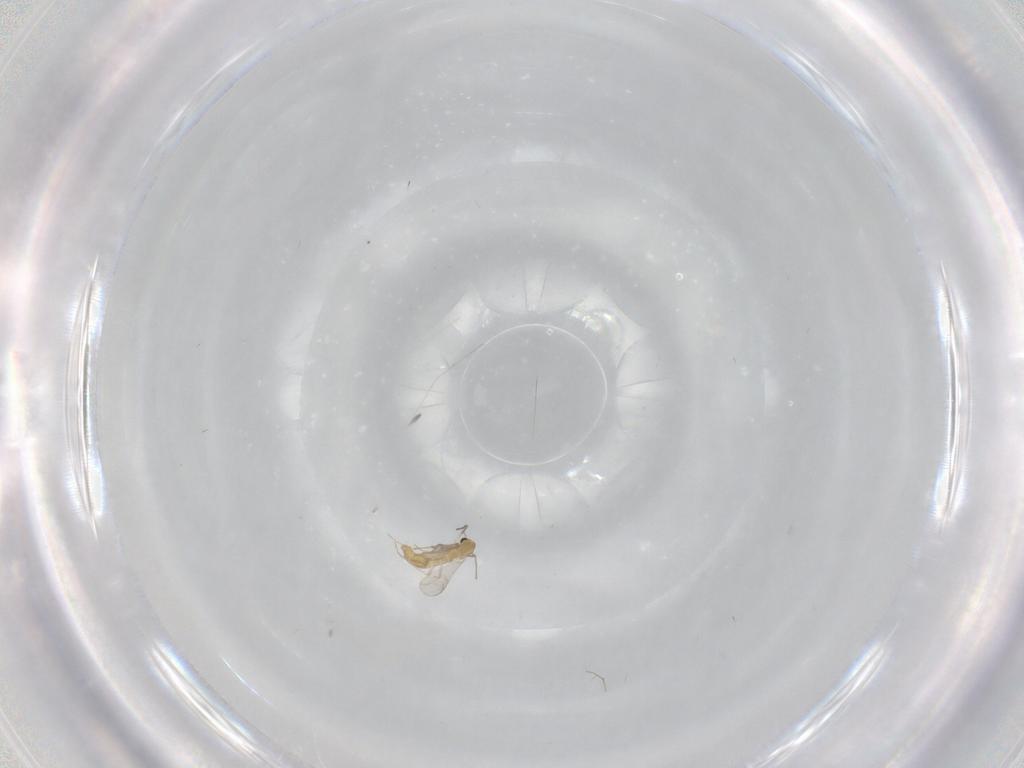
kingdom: Animalia
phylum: Arthropoda
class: Insecta
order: Diptera
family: Chironomidae
